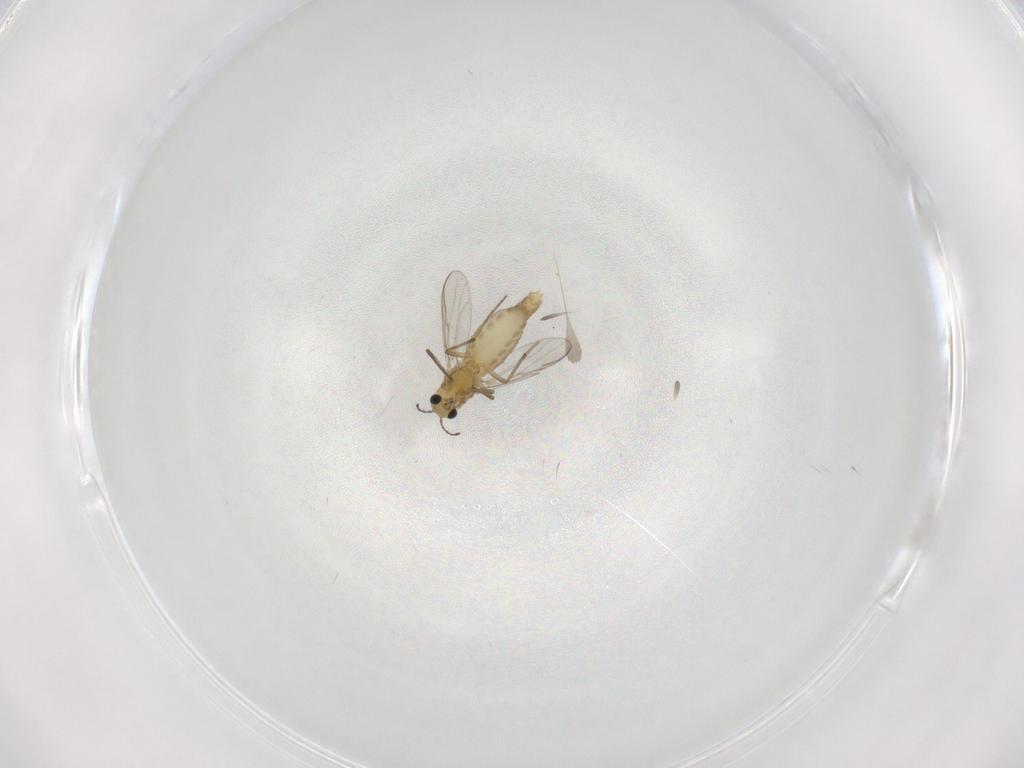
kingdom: Animalia
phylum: Arthropoda
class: Insecta
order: Diptera
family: Chironomidae
